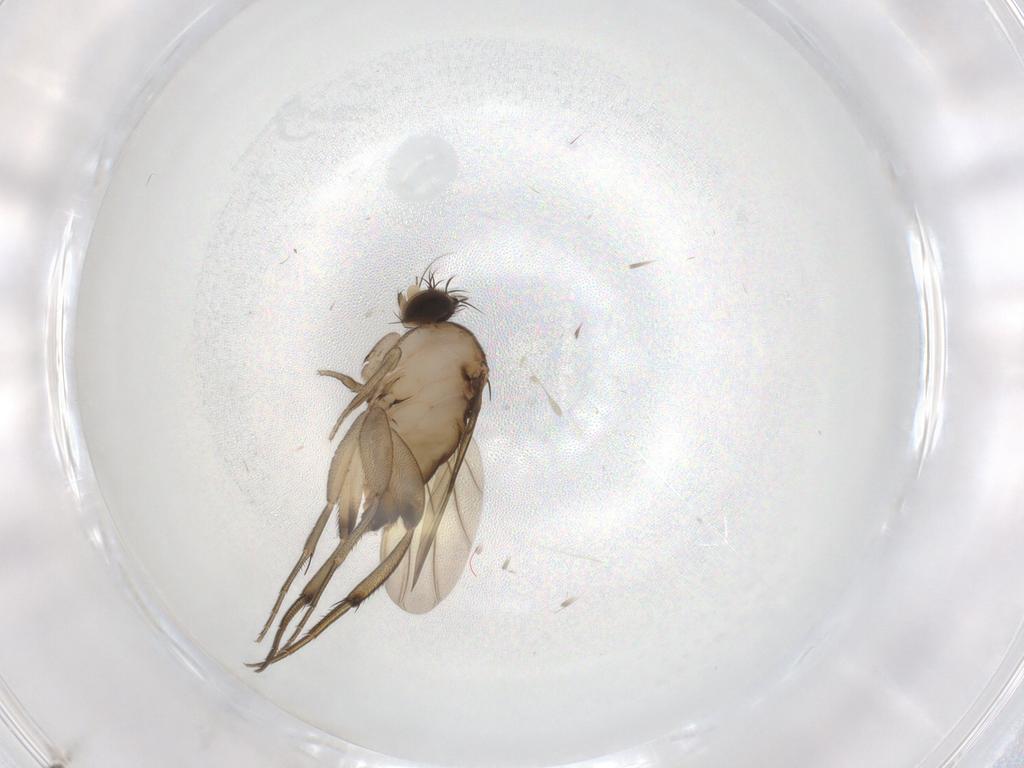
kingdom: Animalia
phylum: Arthropoda
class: Insecta
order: Diptera
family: Phoridae
